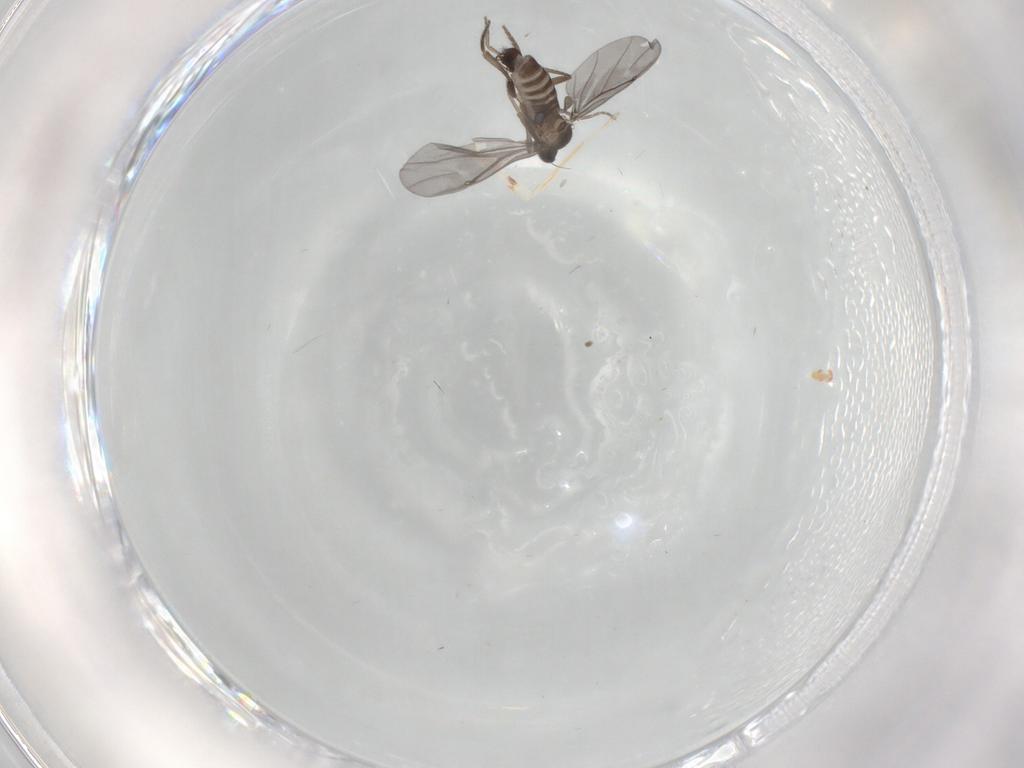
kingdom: Animalia
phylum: Arthropoda
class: Insecta
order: Diptera
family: Phoridae
